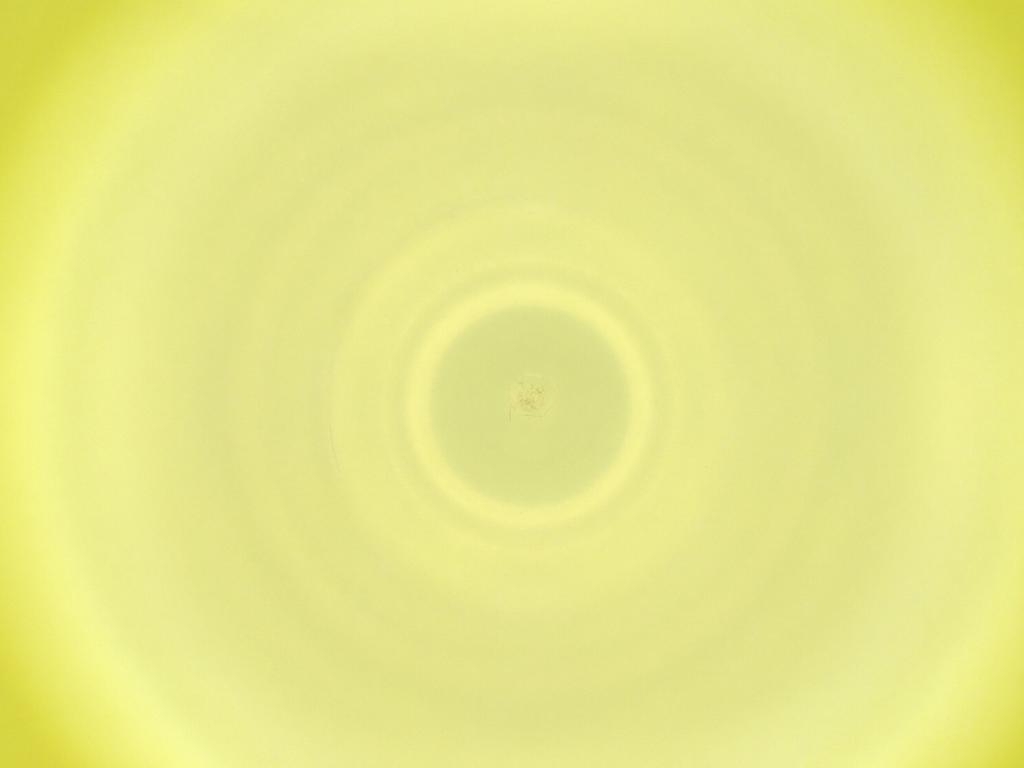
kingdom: Animalia
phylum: Arthropoda
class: Insecta
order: Diptera
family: Cecidomyiidae
